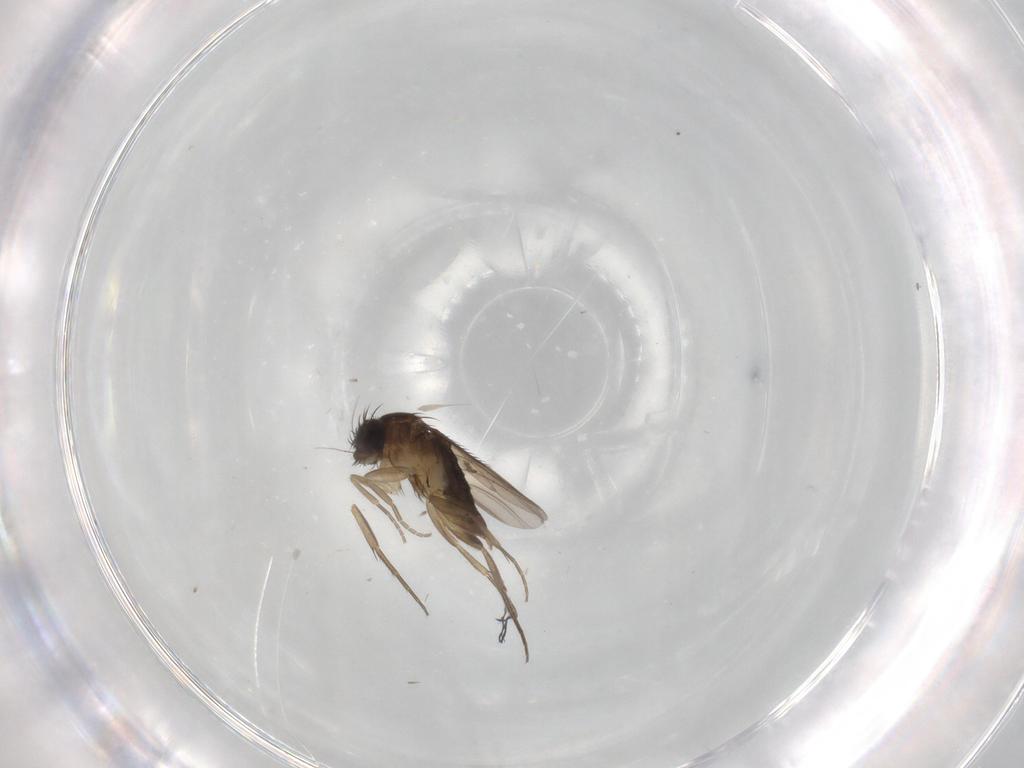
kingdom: Animalia
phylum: Arthropoda
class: Insecta
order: Diptera
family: Phoridae
